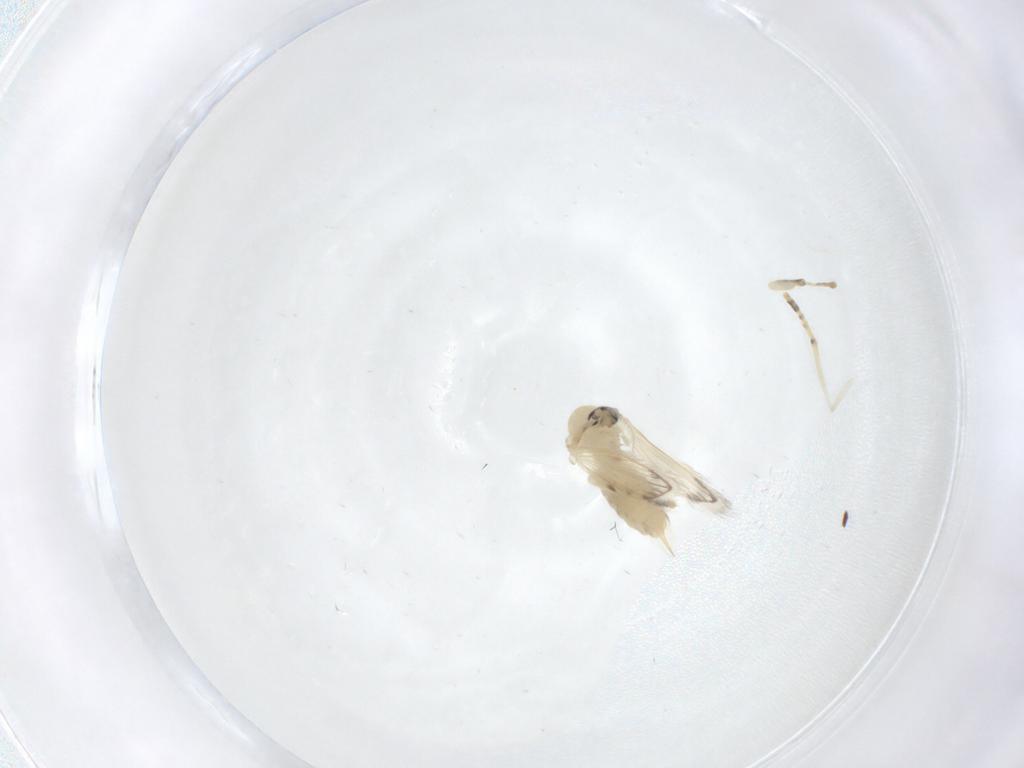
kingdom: Animalia
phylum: Arthropoda
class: Insecta
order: Diptera
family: Psychodidae
